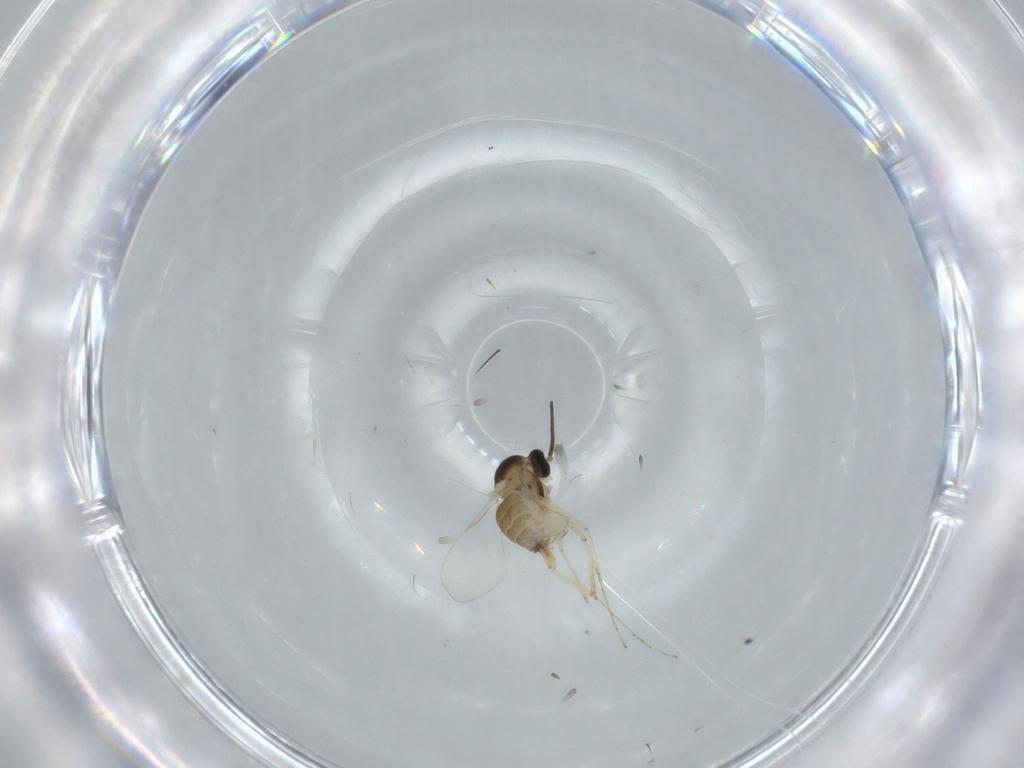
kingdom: Animalia
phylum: Arthropoda
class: Insecta
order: Diptera
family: Cecidomyiidae
